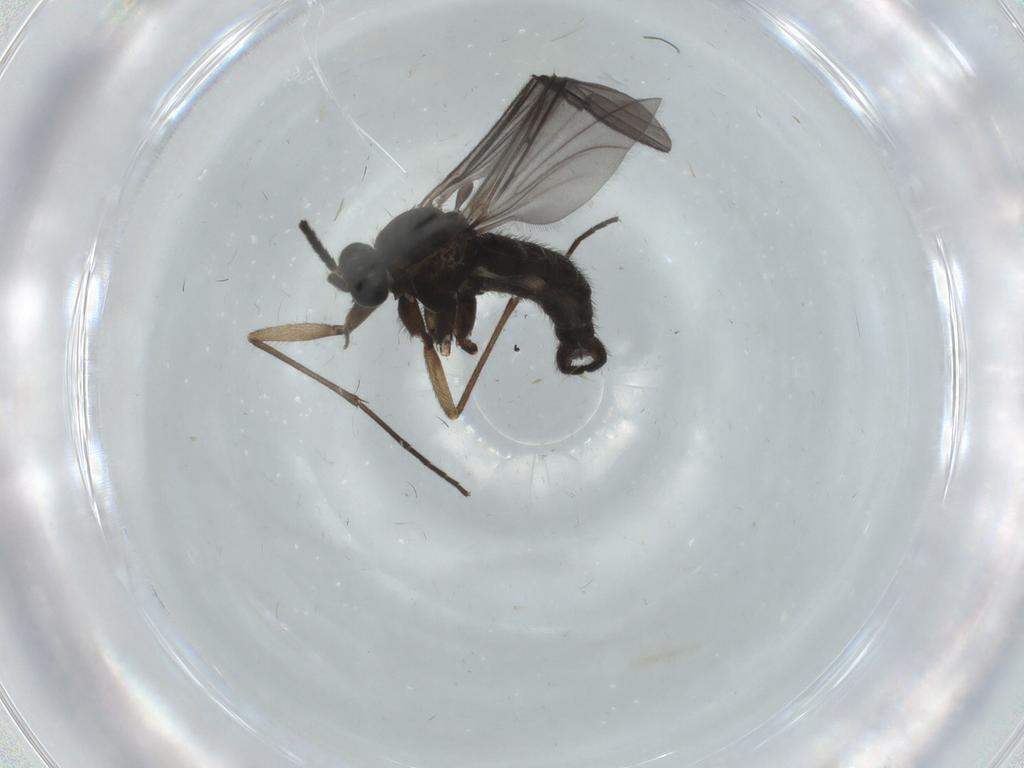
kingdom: Animalia
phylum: Arthropoda
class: Insecta
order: Diptera
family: Sciaridae
